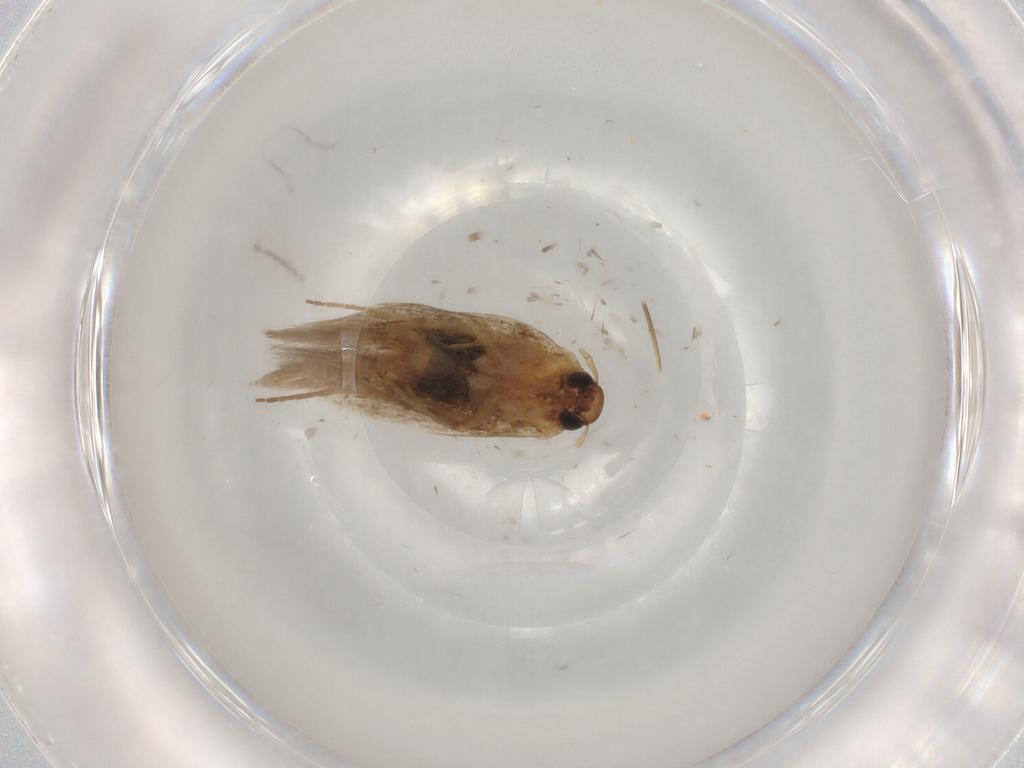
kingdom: Animalia
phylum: Arthropoda
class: Insecta
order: Lepidoptera
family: Noctuidae
